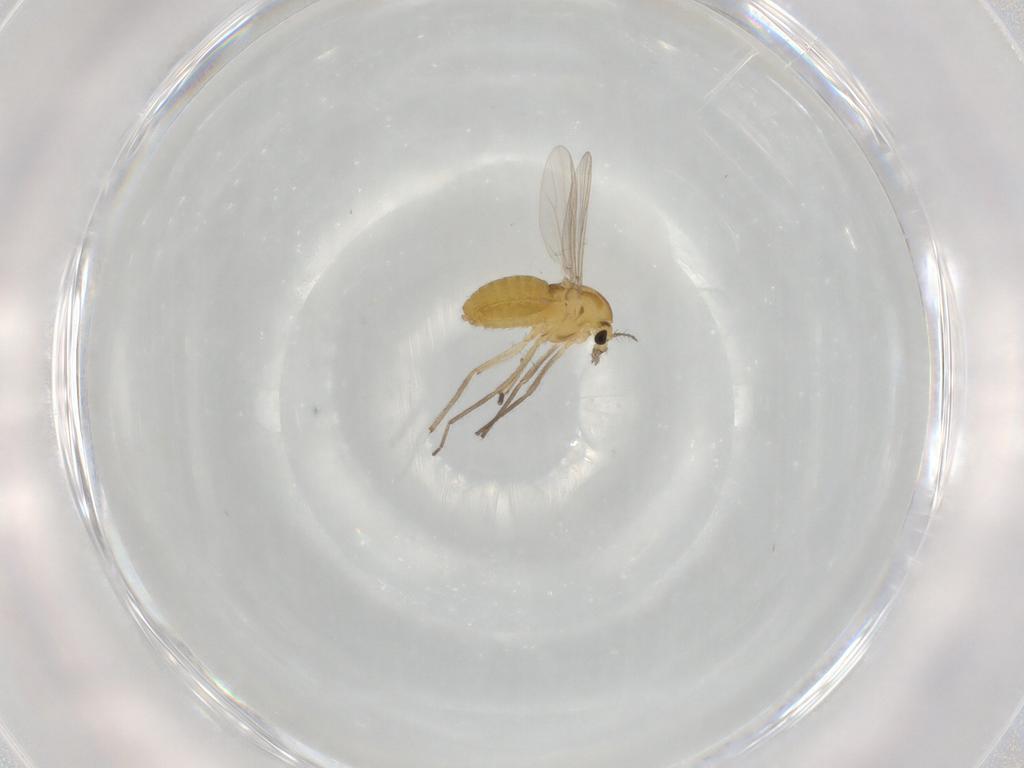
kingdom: Animalia
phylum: Arthropoda
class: Insecta
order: Diptera
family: Chironomidae
